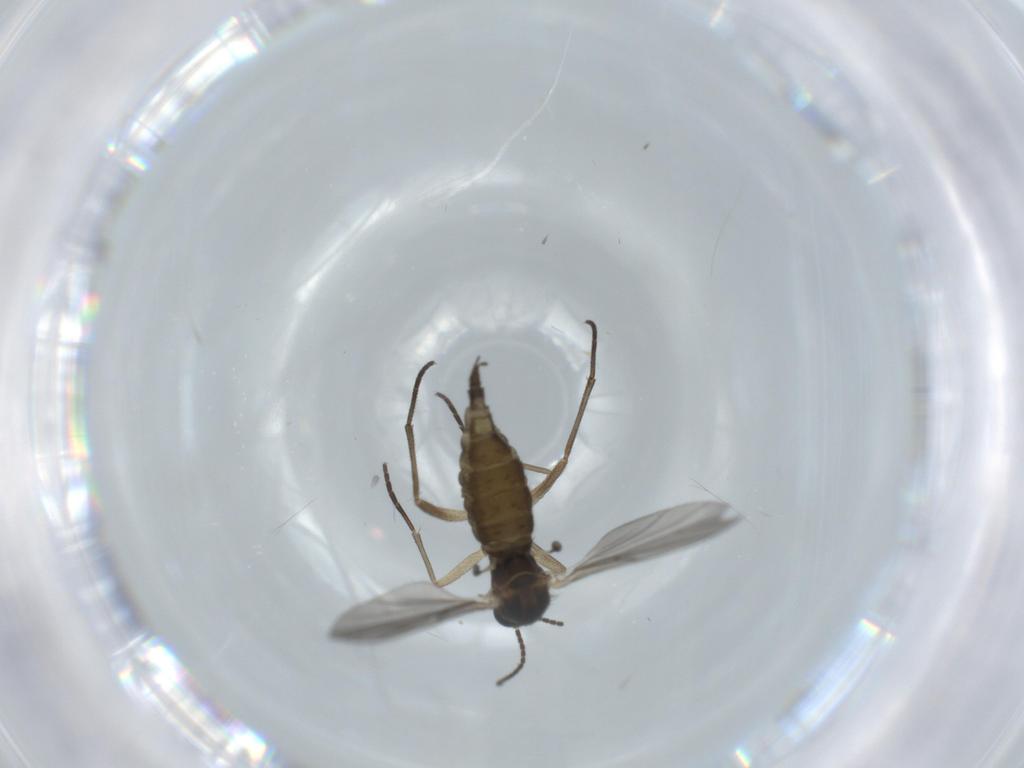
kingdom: Animalia
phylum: Arthropoda
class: Insecta
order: Diptera
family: Sciaridae
